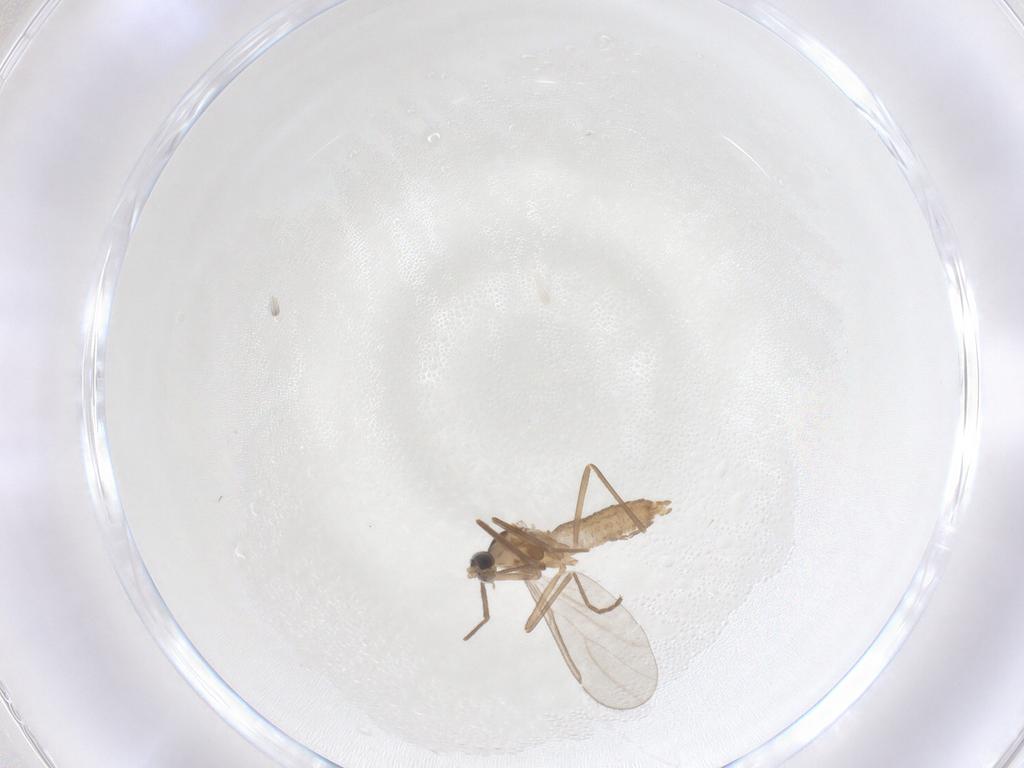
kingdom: Animalia
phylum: Arthropoda
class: Insecta
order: Diptera
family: Cecidomyiidae
